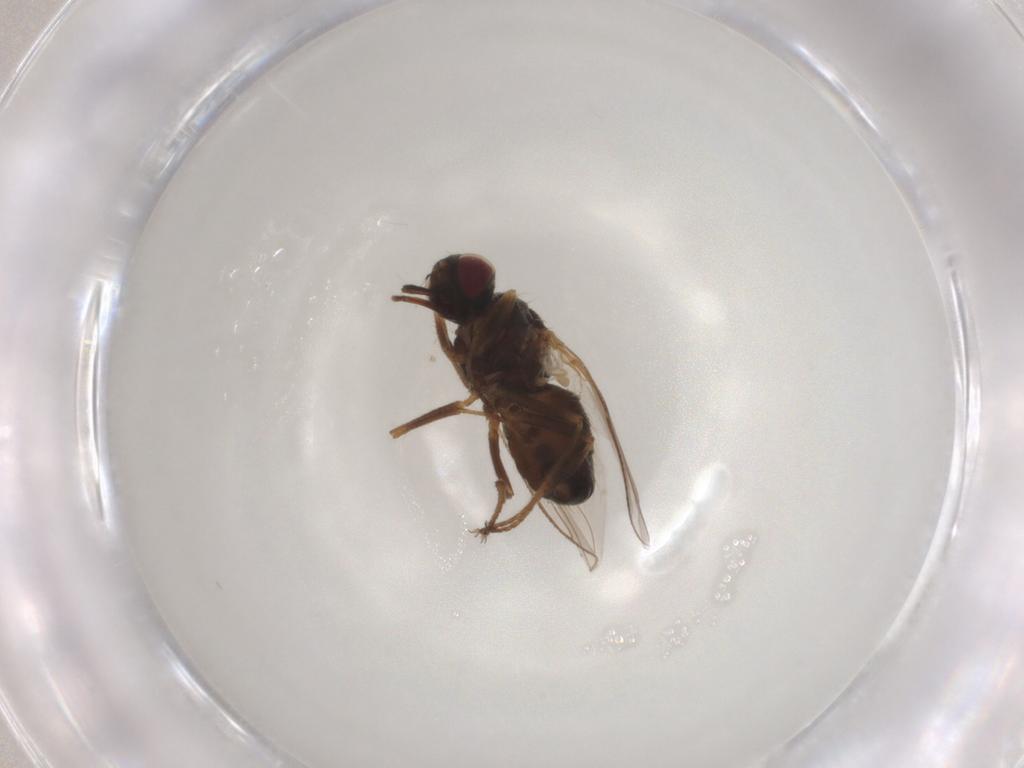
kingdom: Animalia
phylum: Arthropoda
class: Insecta
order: Diptera
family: Muscidae
